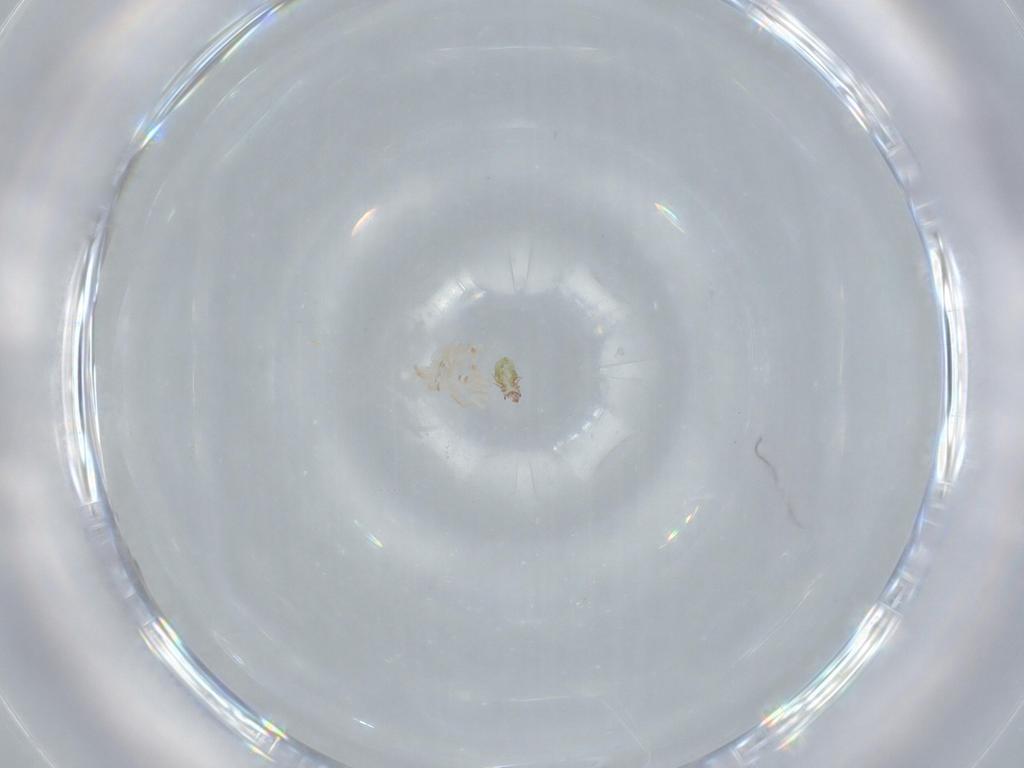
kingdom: Animalia
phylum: Arthropoda
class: Arachnida
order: Sarcoptiformes
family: Epidermoptidae
